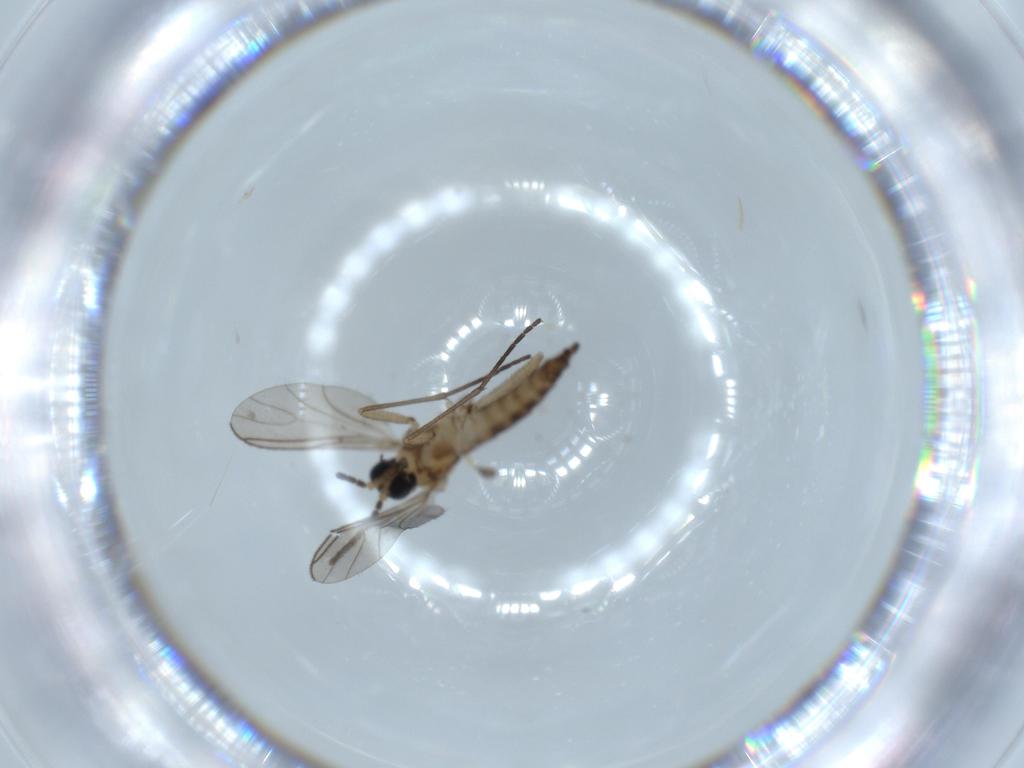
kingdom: Animalia
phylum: Arthropoda
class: Insecta
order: Diptera
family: Sciaridae
